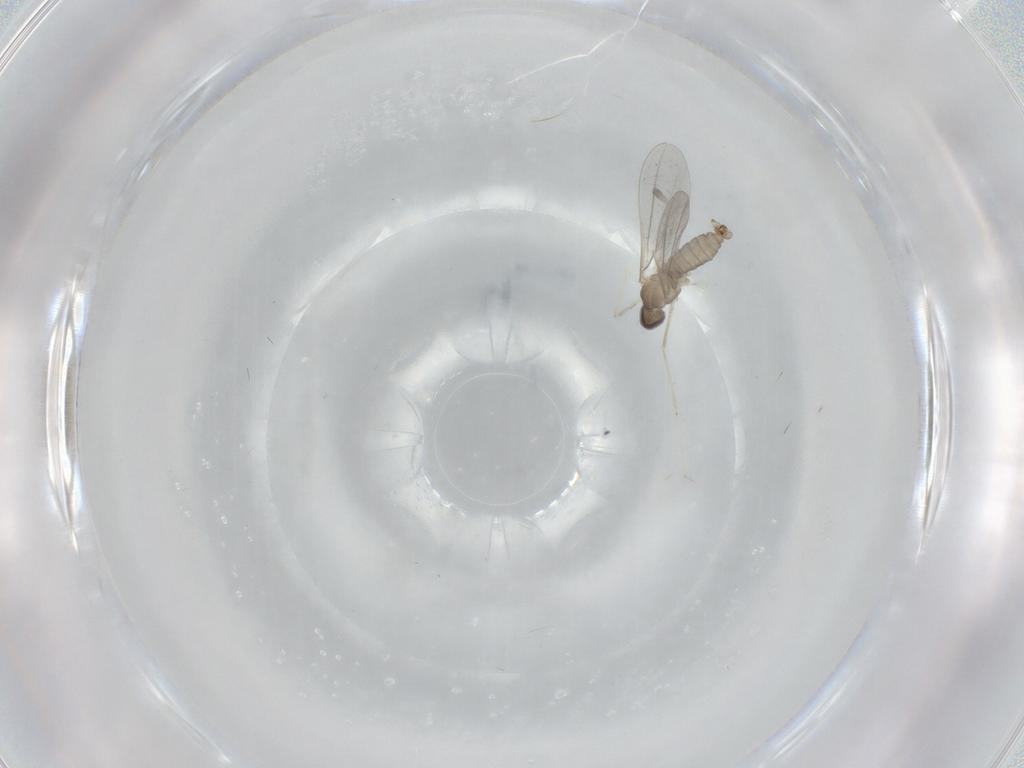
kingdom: Animalia
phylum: Arthropoda
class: Insecta
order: Diptera
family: Cecidomyiidae
